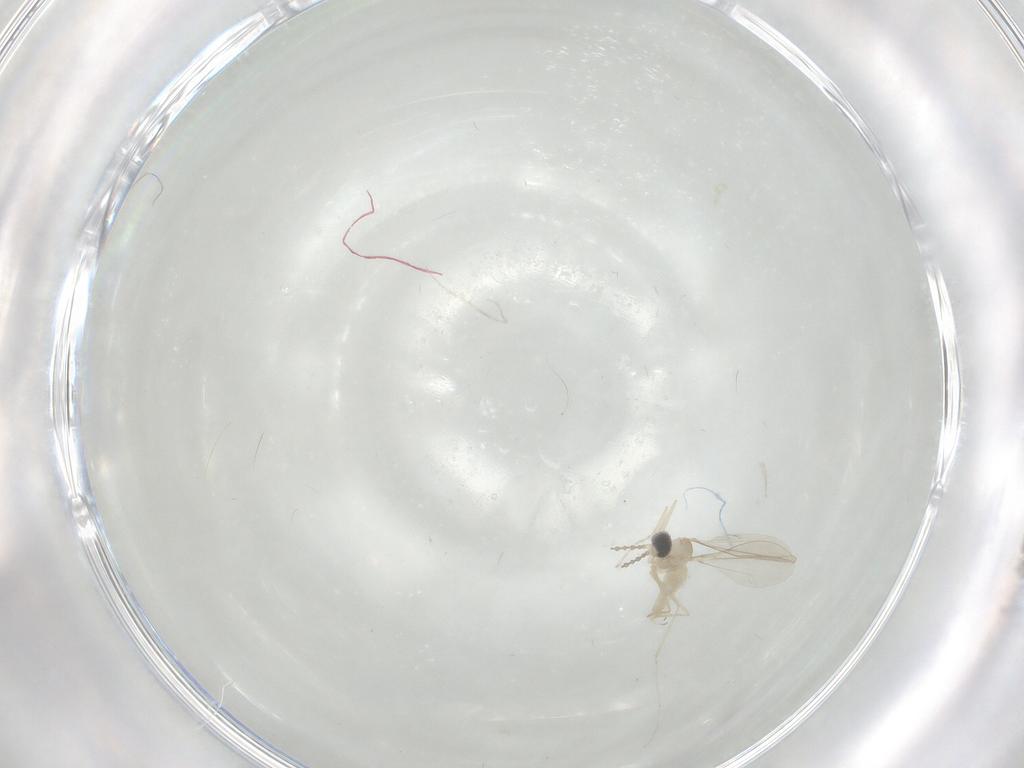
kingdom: Animalia
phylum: Arthropoda
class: Insecta
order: Diptera
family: Cecidomyiidae
